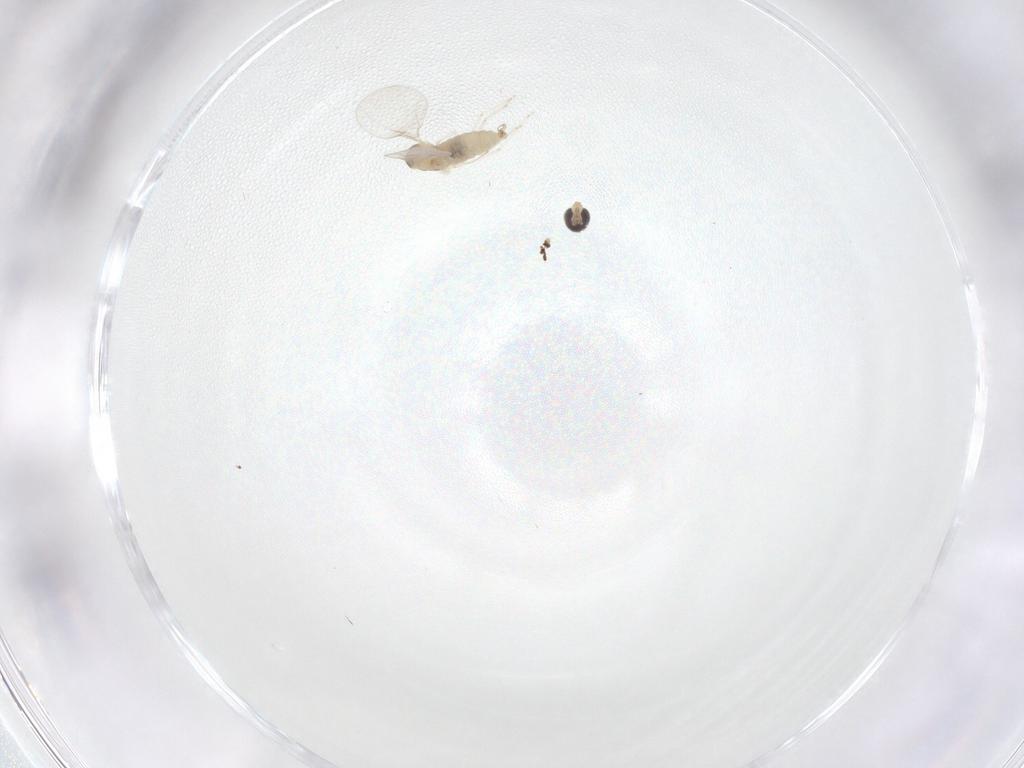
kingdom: Animalia
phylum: Arthropoda
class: Insecta
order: Diptera
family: Cecidomyiidae
